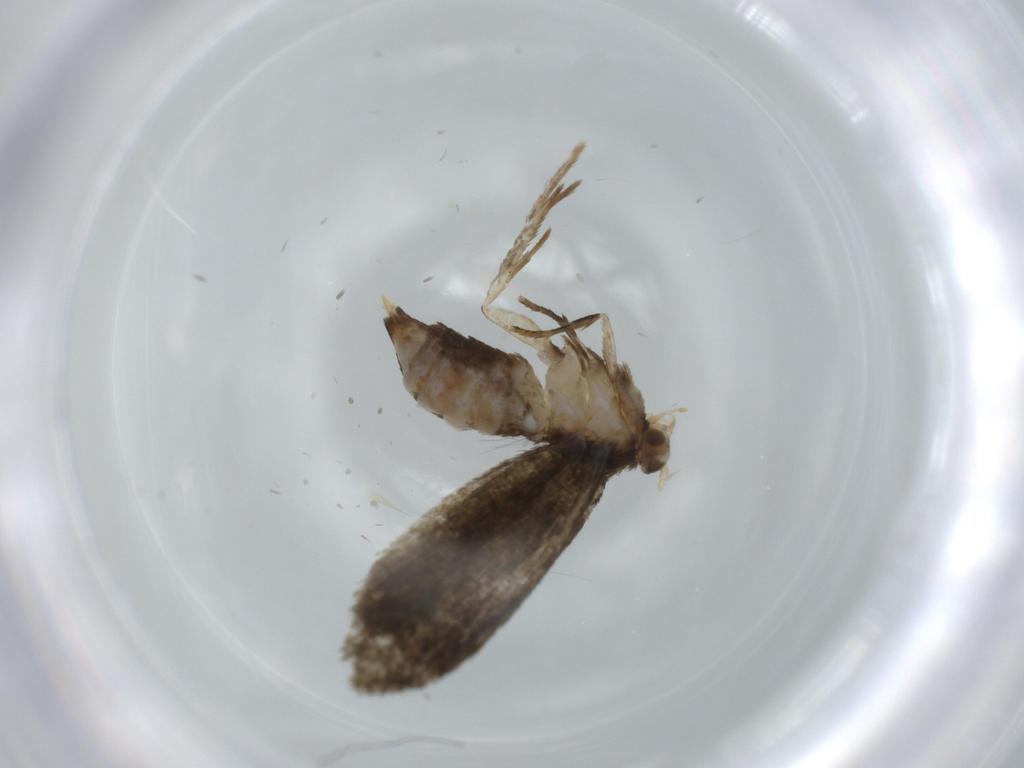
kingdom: Animalia
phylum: Arthropoda
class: Insecta
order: Lepidoptera
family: Tineidae
